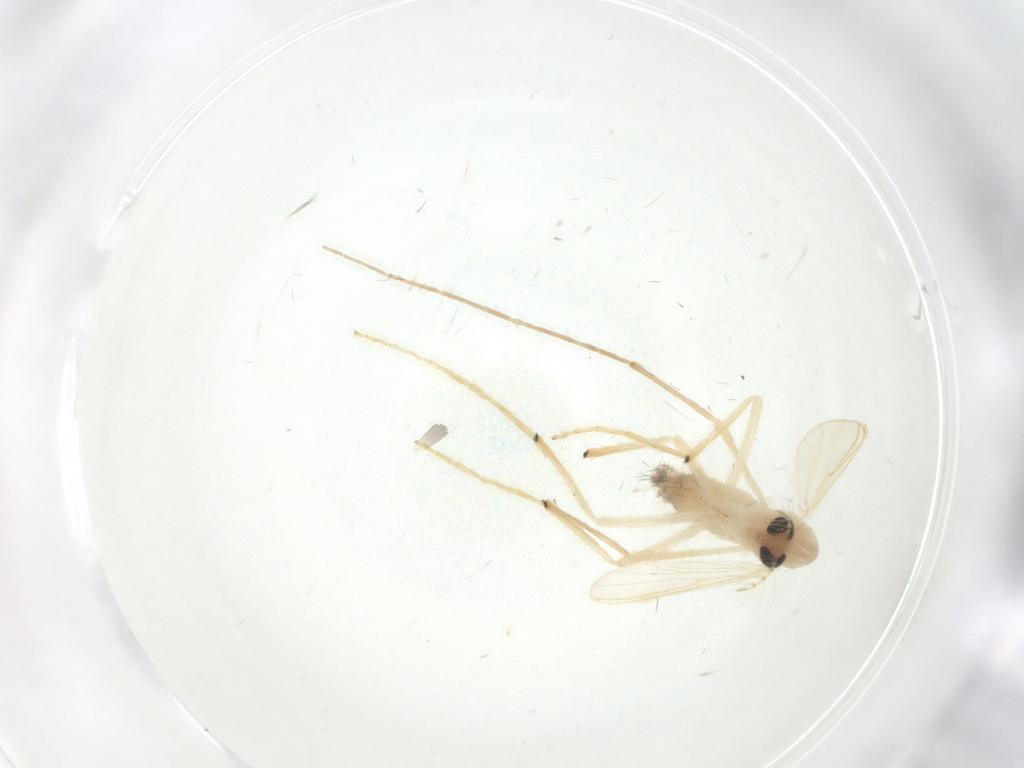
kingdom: Animalia
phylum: Arthropoda
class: Insecta
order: Diptera
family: Chironomidae
